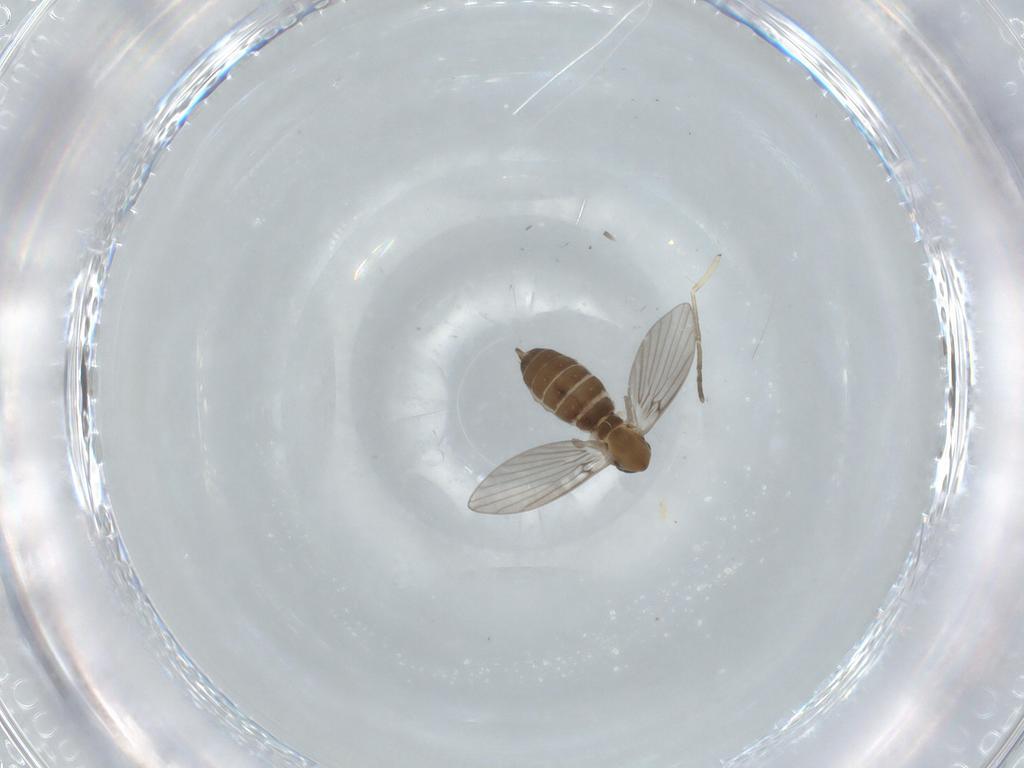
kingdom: Animalia
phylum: Arthropoda
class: Insecta
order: Diptera
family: Psychodidae
